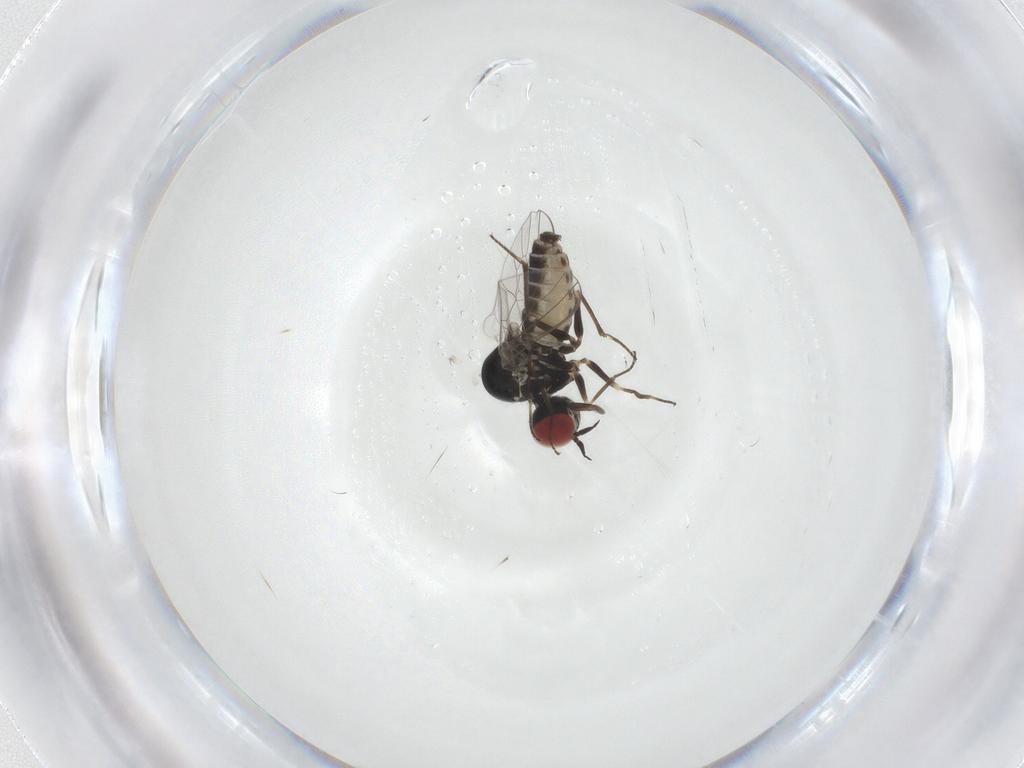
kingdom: Animalia
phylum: Arthropoda
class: Insecta
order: Diptera
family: Mythicomyiidae
